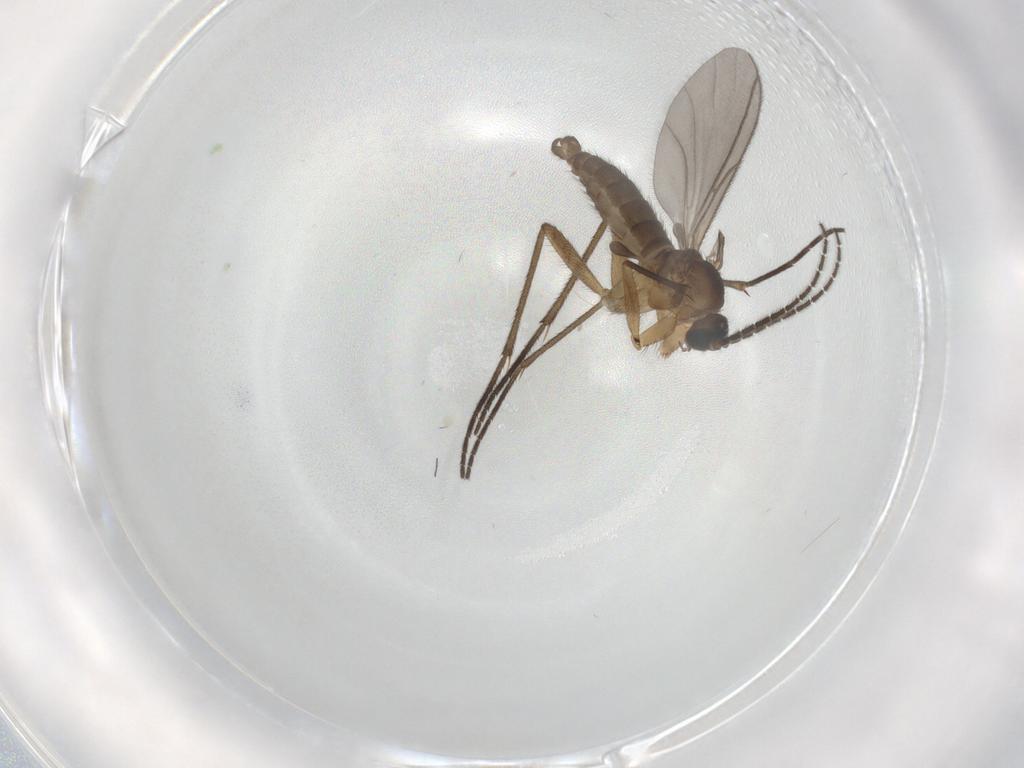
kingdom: Animalia
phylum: Arthropoda
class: Insecta
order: Diptera
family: Sciaridae
